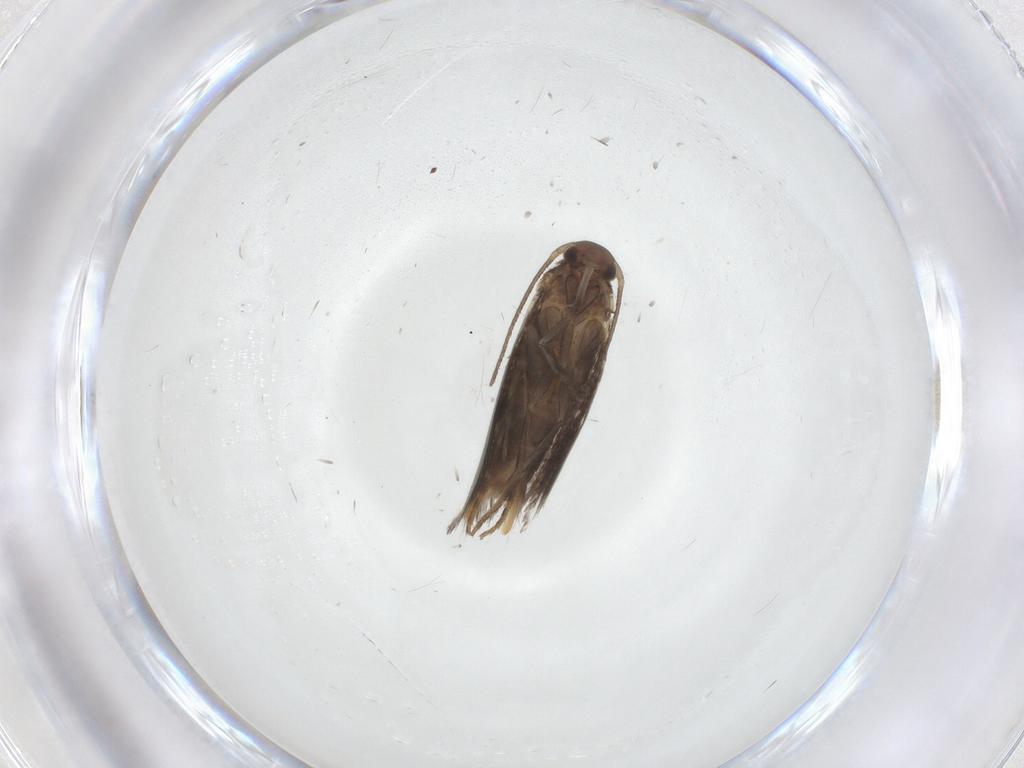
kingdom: Animalia
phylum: Arthropoda
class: Insecta
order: Lepidoptera
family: Elachistidae
